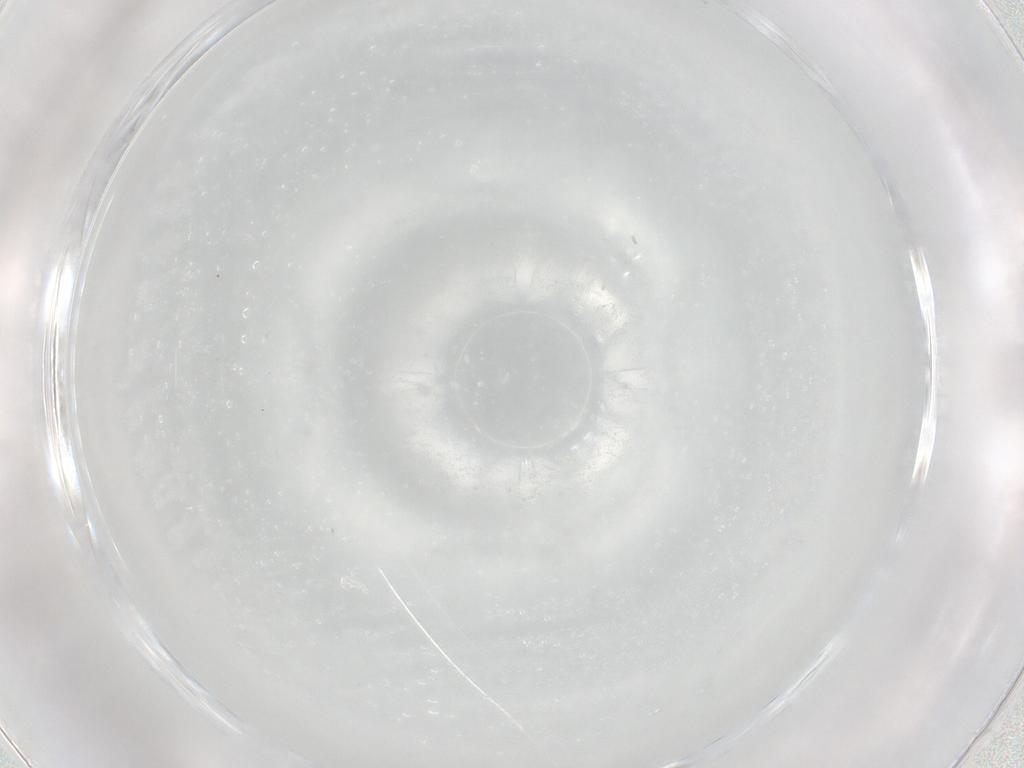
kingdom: Animalia
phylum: Arthropoda
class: Insecta
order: Diptera
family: Sciaridae
